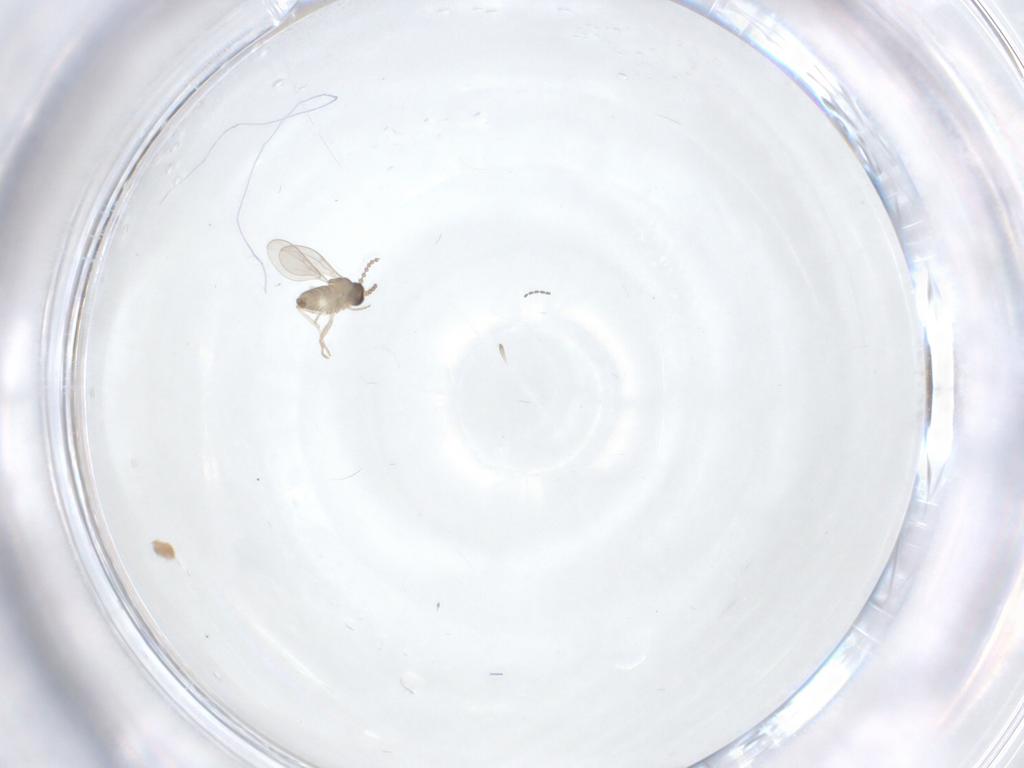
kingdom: Animalia
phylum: Arthropoda
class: Insecta
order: Diptera
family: Cecidomyiidae
